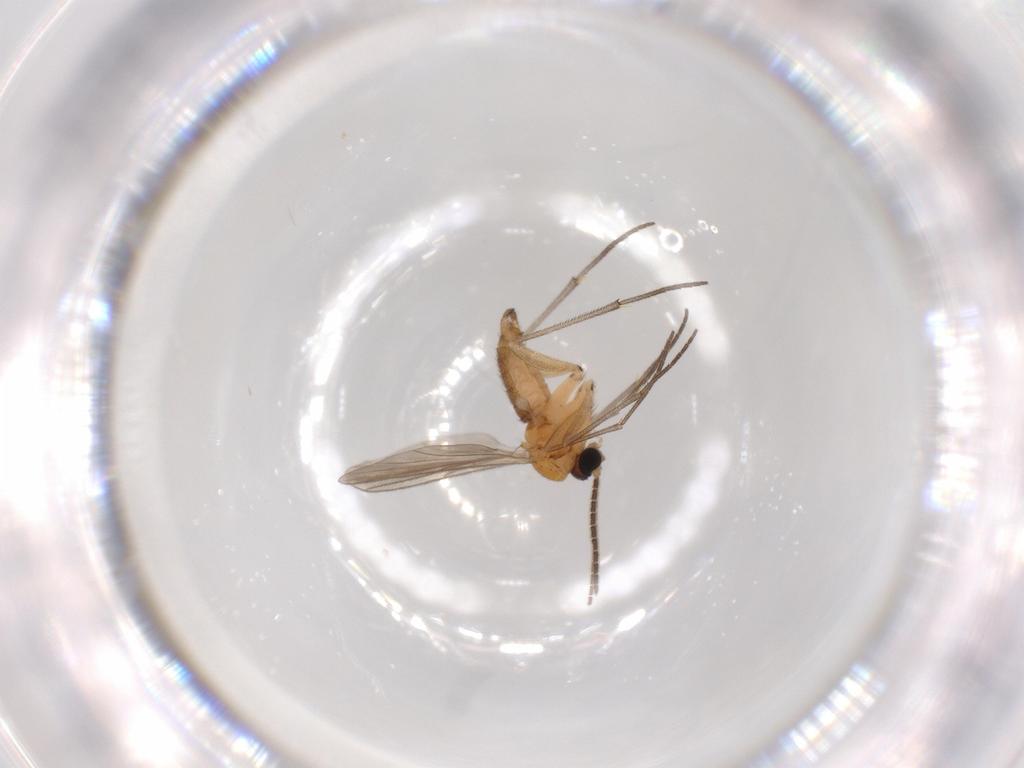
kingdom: Animalia
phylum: Arthropoda
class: Insecta
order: Diptera
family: Sciaridae
